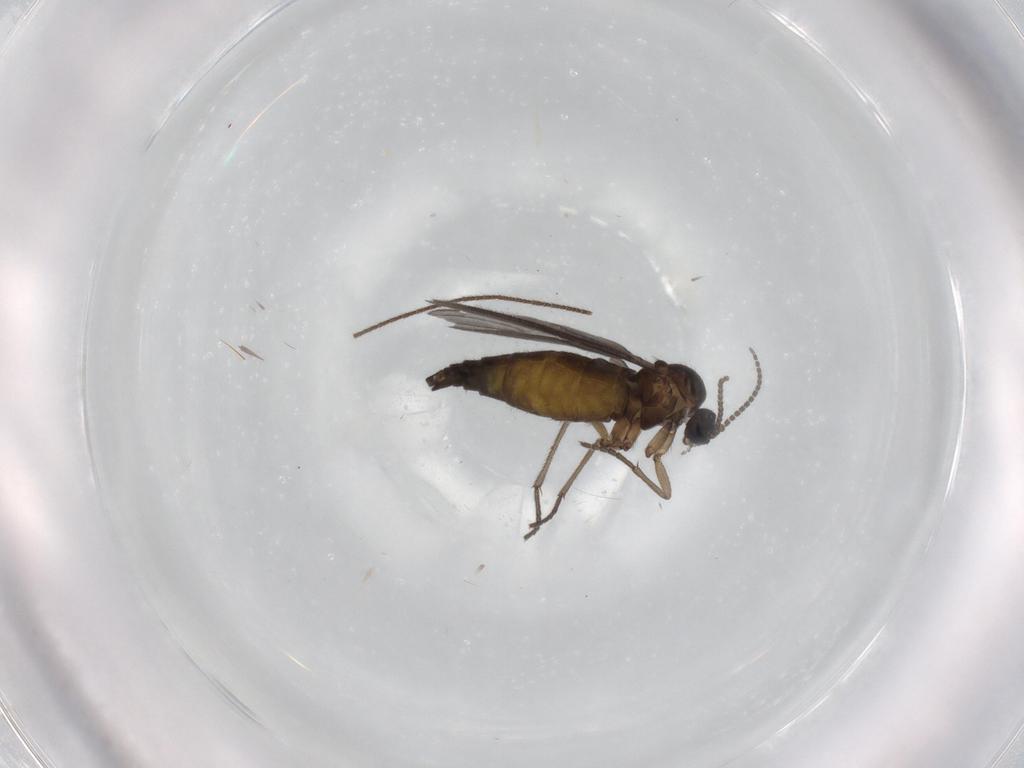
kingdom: Animalia
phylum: Arthropoda
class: Insecta
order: Diptera
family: Sciaridae
